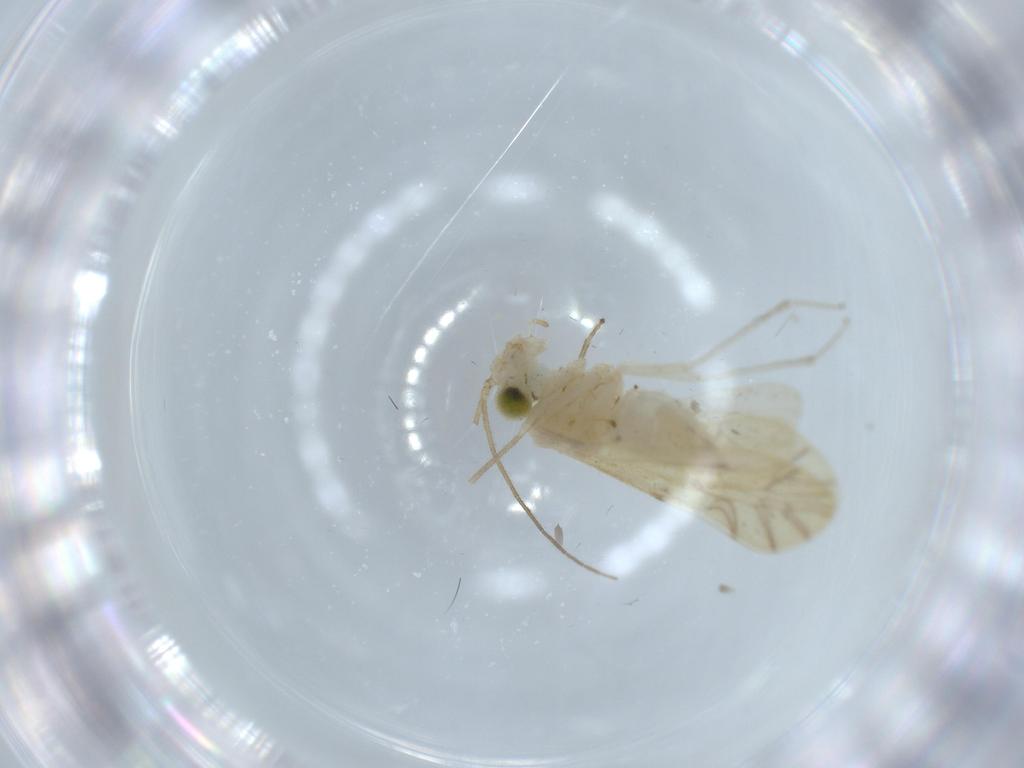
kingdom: Animalia
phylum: Arthropoda
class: Insecta
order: Psocodea
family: Caeciliusidae
